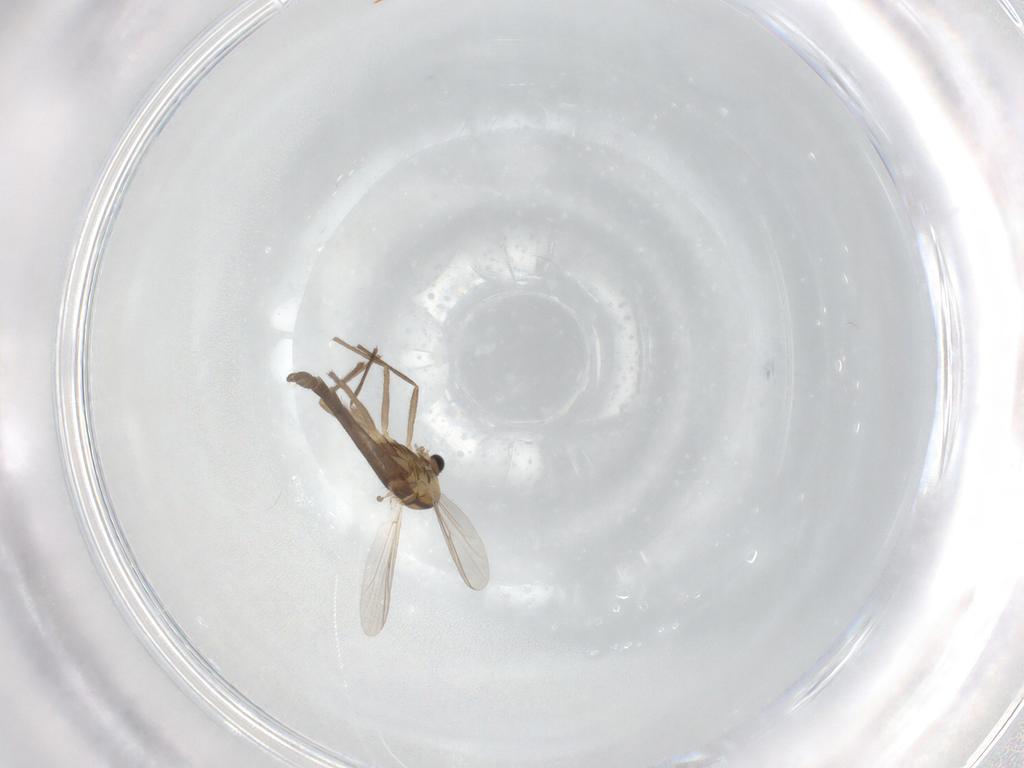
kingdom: Animalia
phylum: Arthropoda
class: Insecta
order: Diptera
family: Chironomidae
